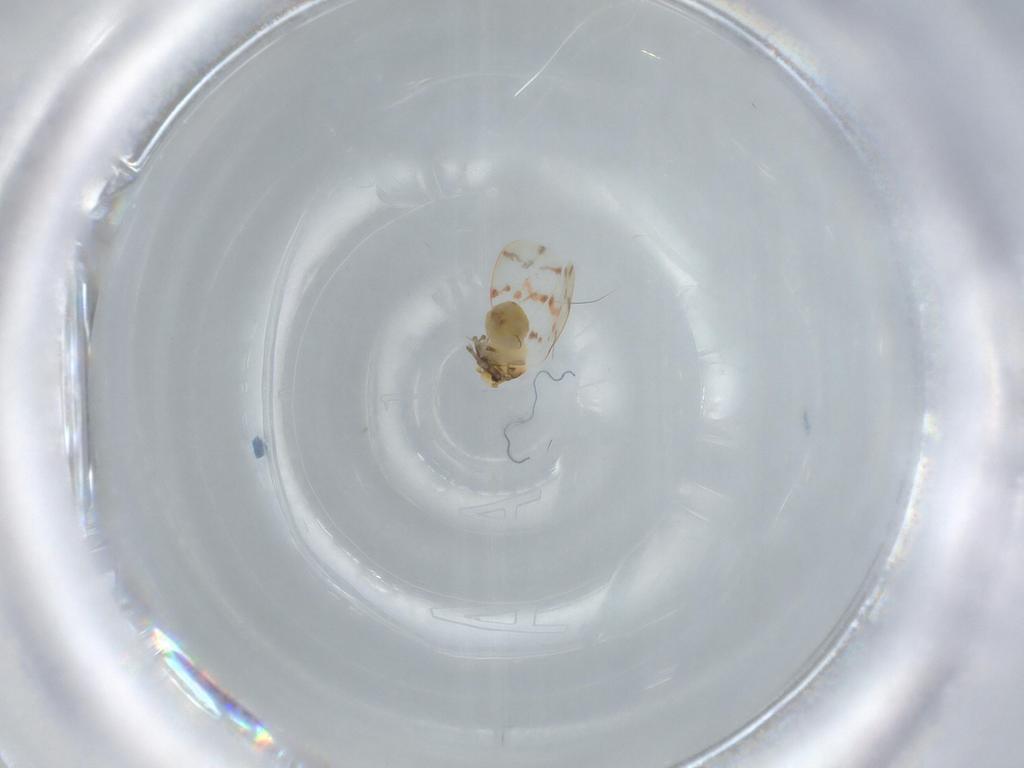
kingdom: Animalia
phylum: Arthropoda
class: Insecta
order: Hemiptera
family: Aleyrodidae
